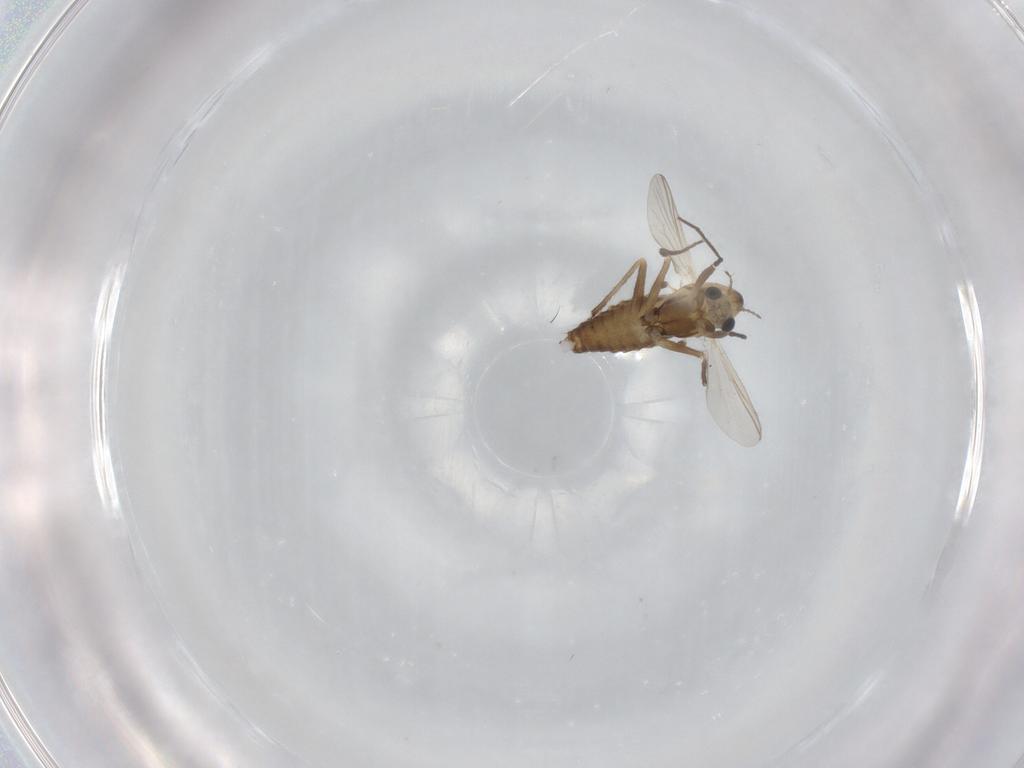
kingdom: Animalia
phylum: Arthropoda
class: Insecta
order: Diptera
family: Chironomidae
